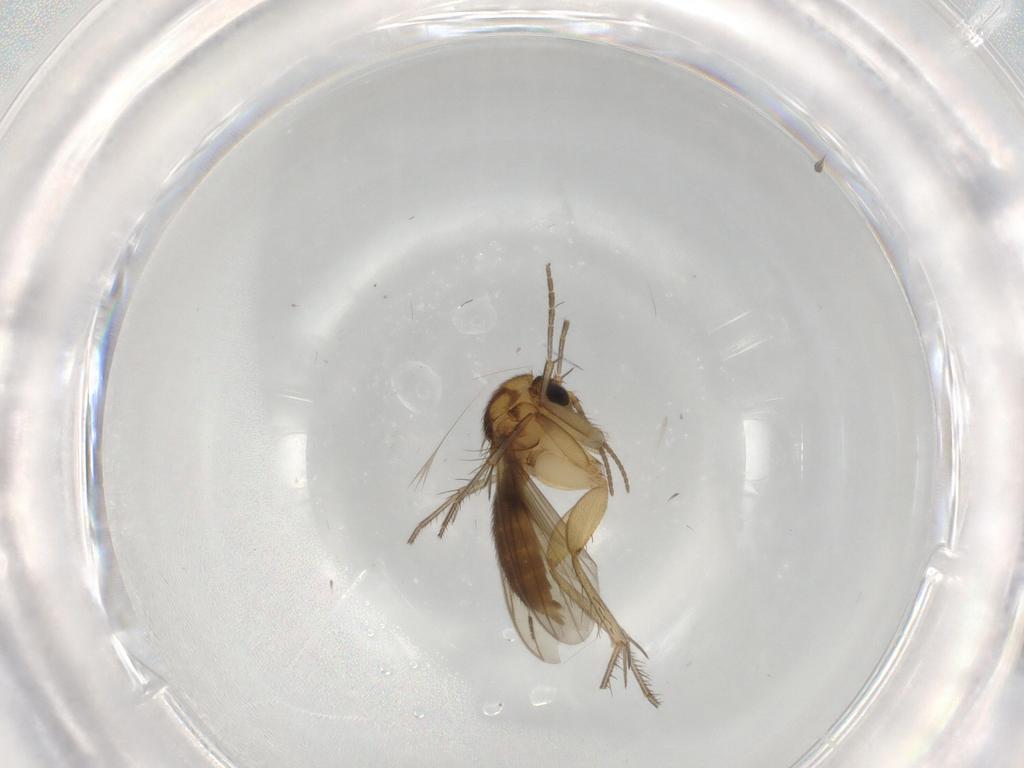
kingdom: Animalia
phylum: Arthropoda
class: Insecta
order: Diptera
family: Mycetophilidae
